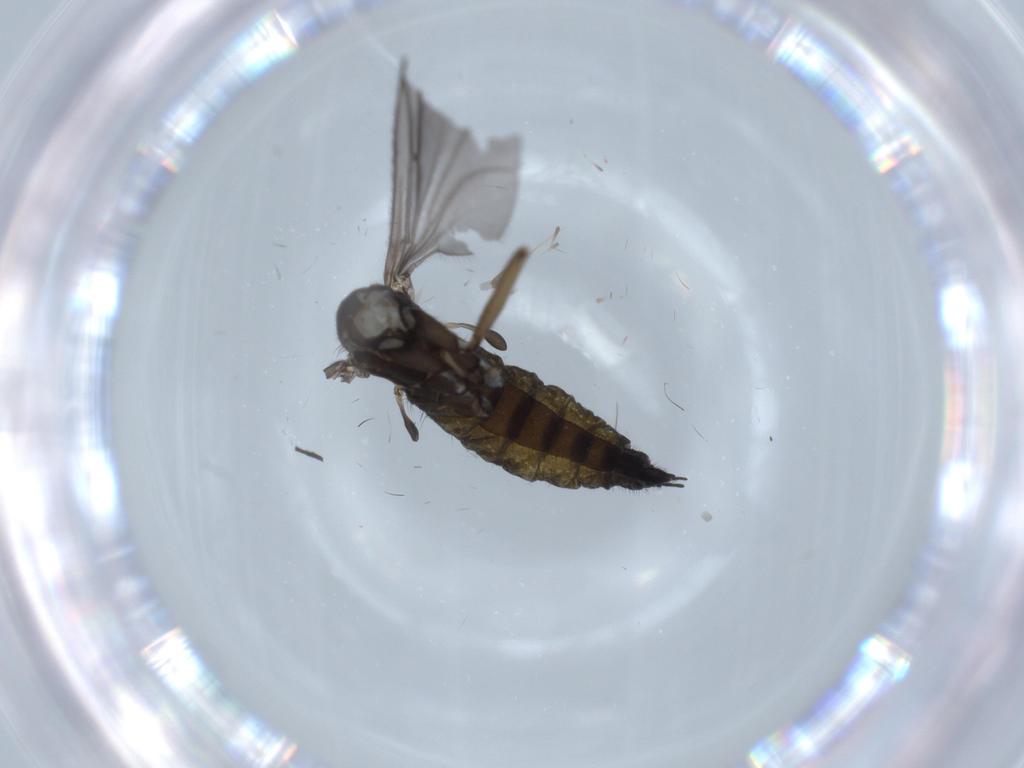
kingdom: Animalia
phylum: Arthropoda
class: Insecta
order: Diptera
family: Sciaridae
